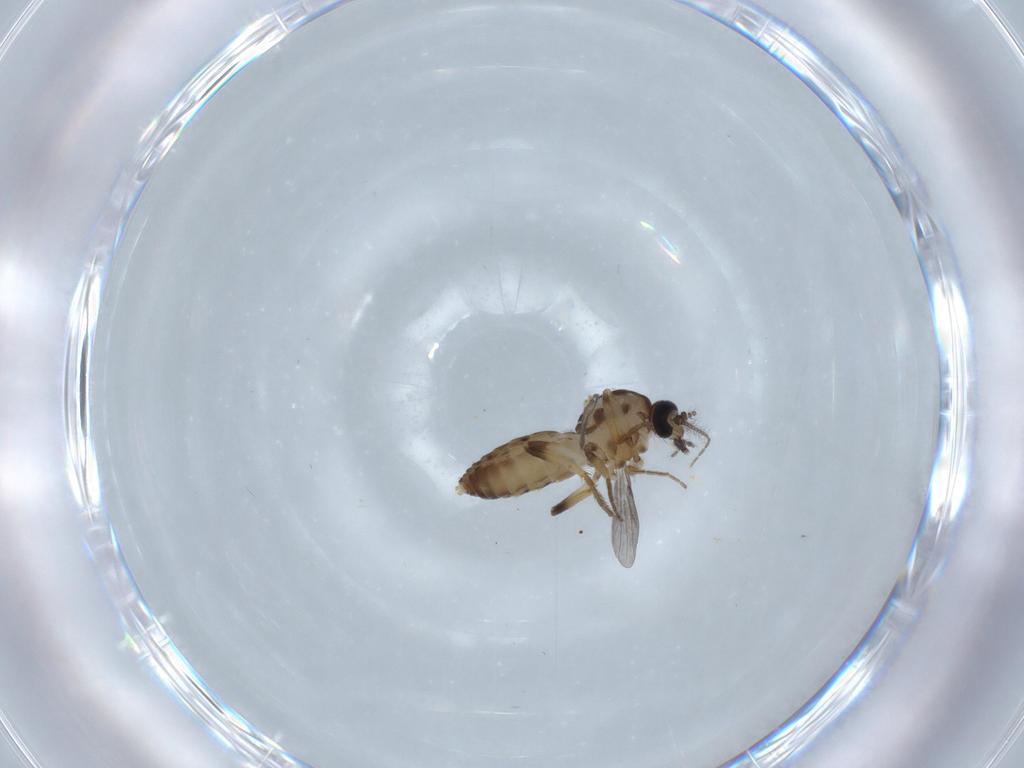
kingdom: Animalia
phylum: Arthropoda
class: Insecta
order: Diptera
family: Ceratopogonidae
